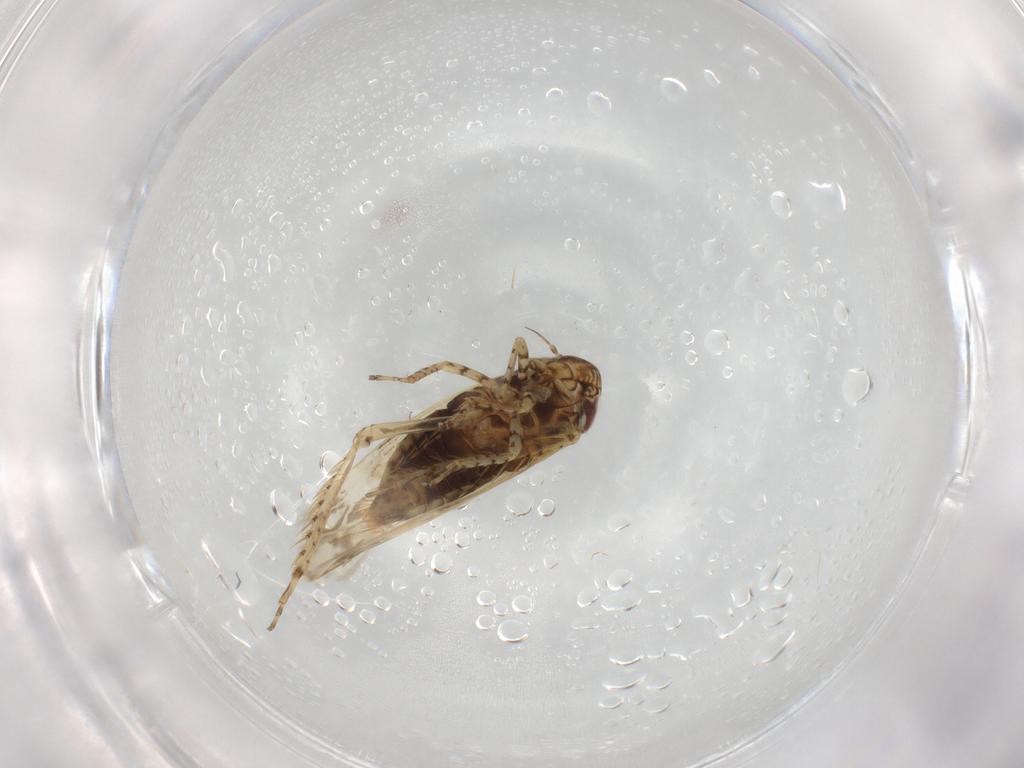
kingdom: Animalia
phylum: Arthropoda
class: Insecta
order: Hemiptera
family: Cicadellidae
